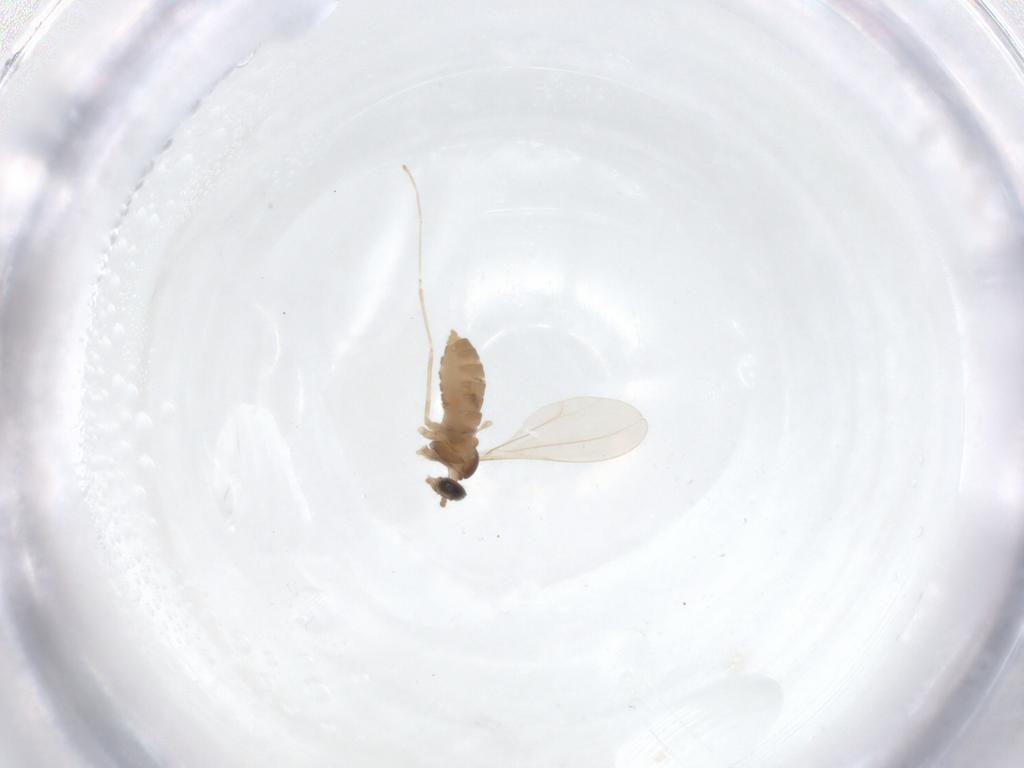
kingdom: Animalia
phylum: Arthropoda
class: Insecta
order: Diptera
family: Cecidomyiidae
